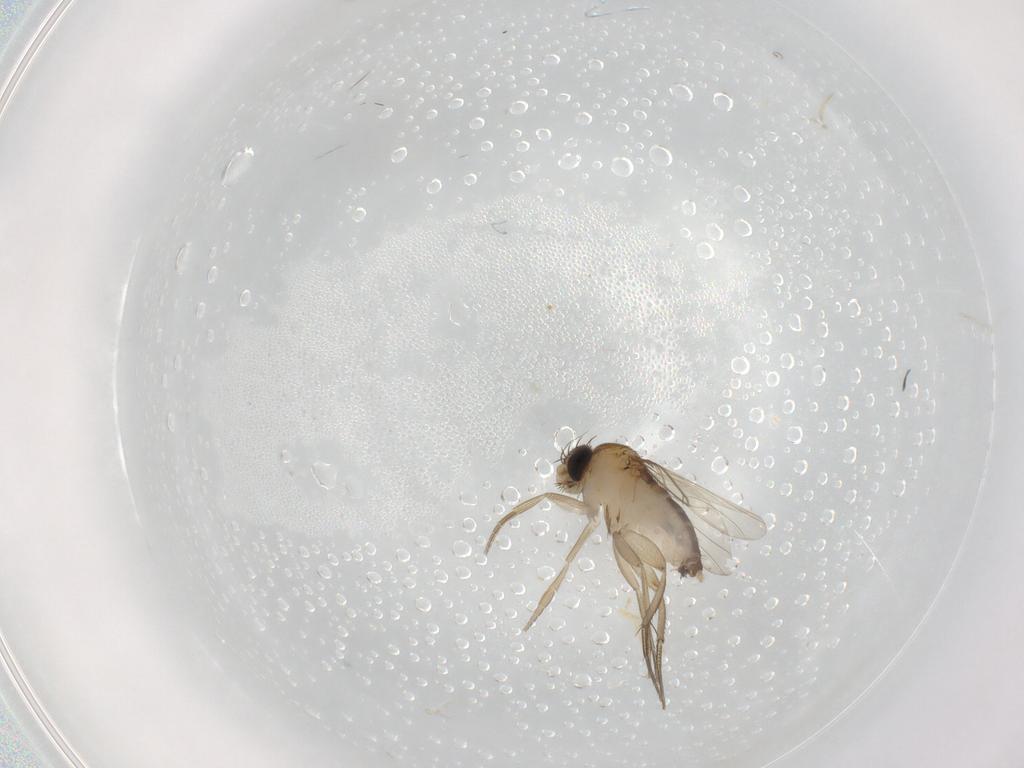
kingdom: Animalia
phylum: Arthropoda
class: Insecta
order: Diptera
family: Phoridae
